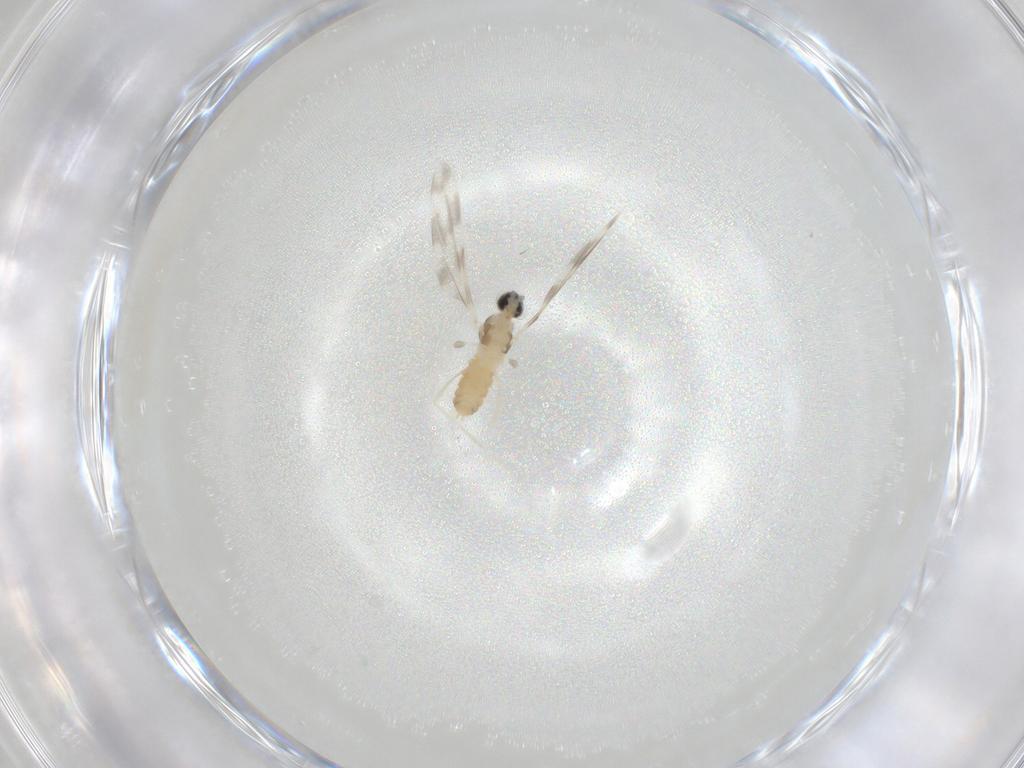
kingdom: Animalia
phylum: Arthropoda
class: Insecta
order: Diptera
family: Cecidomyiidae
